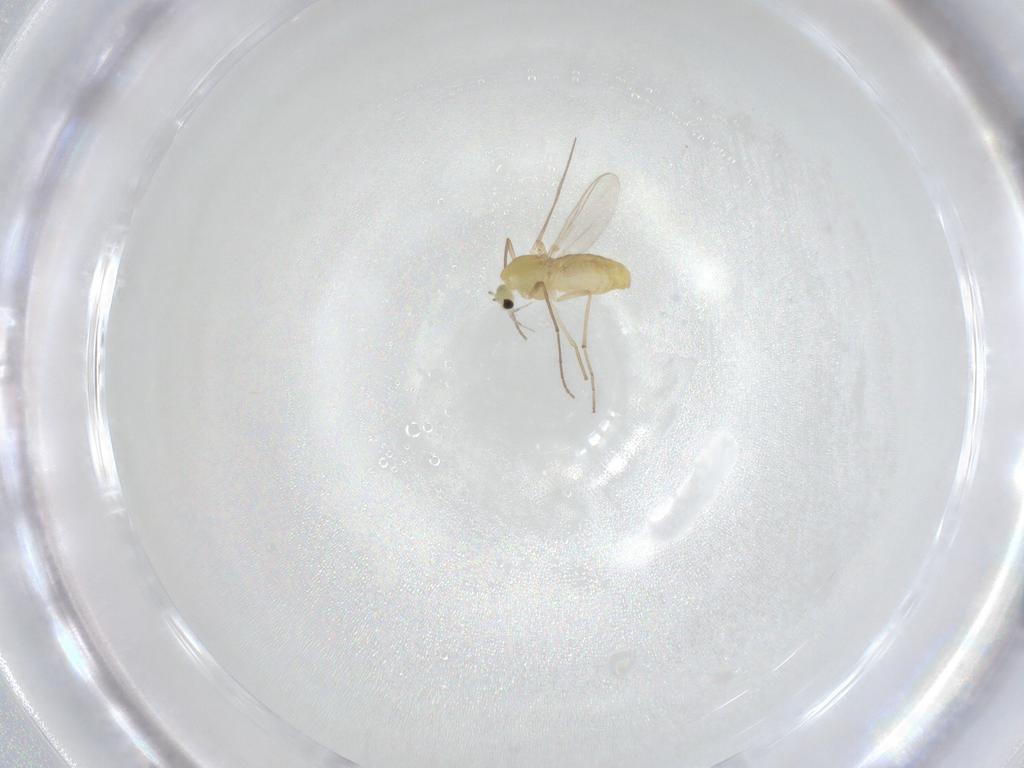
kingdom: Animalia
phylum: Arthropoda
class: Insecta
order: Diptera
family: Chironomidae
